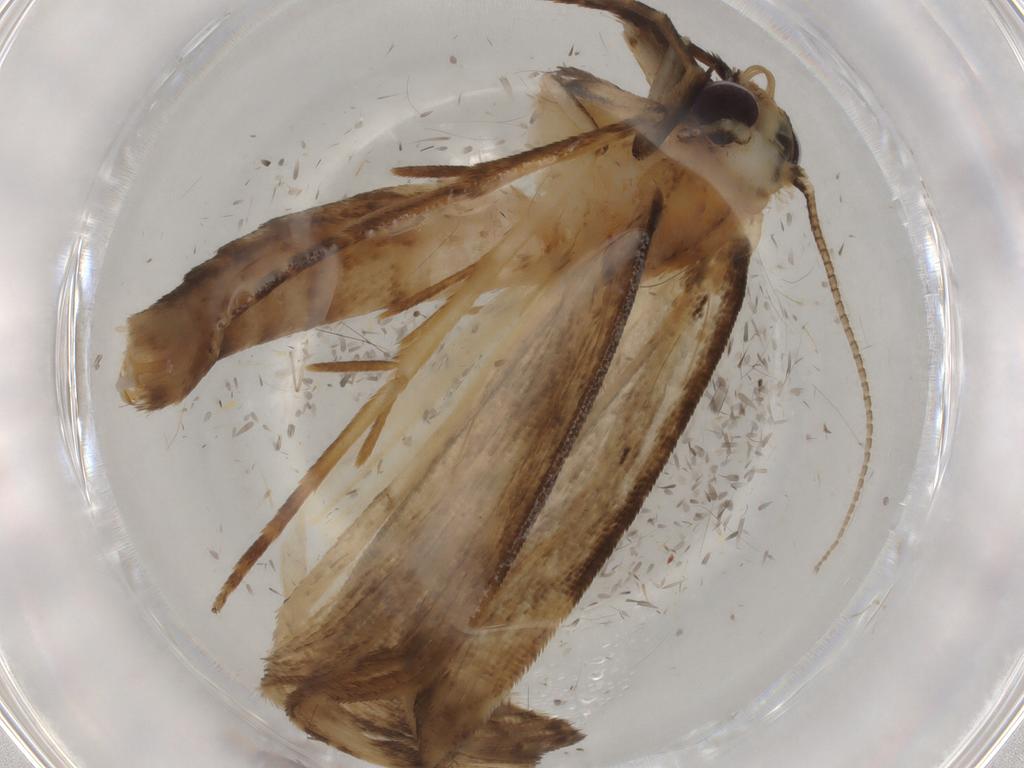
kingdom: Animalia
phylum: Arthropoda
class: Insecta
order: Lepidoptera
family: Noctuidae
